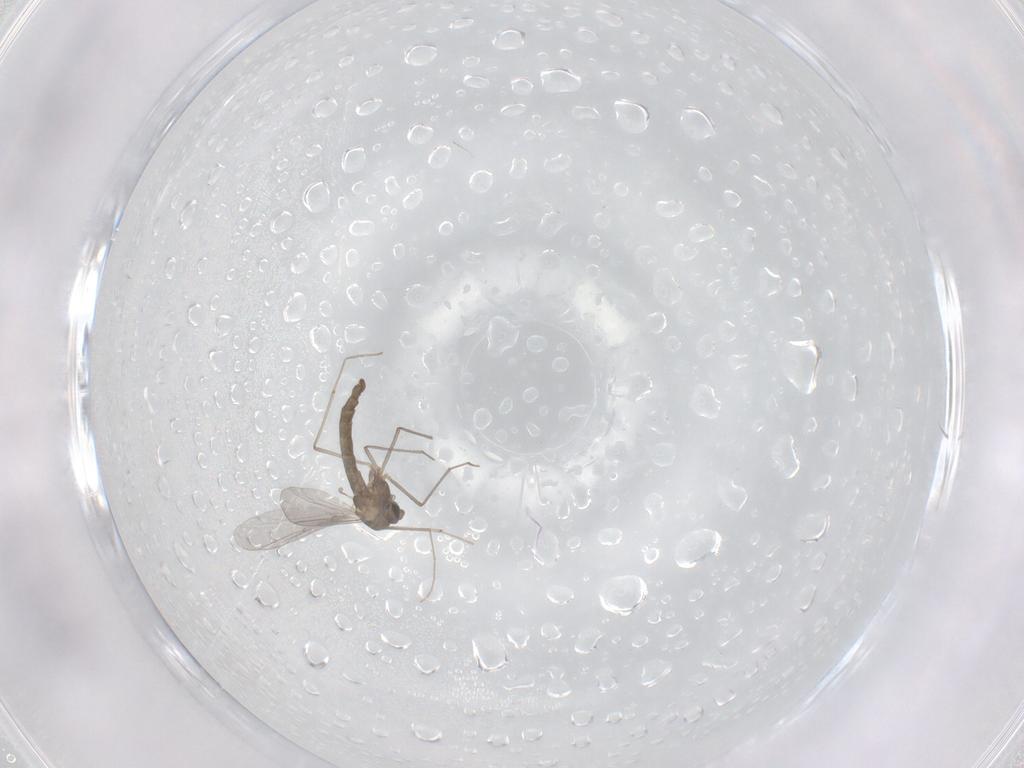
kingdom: Animalia
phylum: Arthropoda
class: Insecta
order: Diptera
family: Chironomidae
